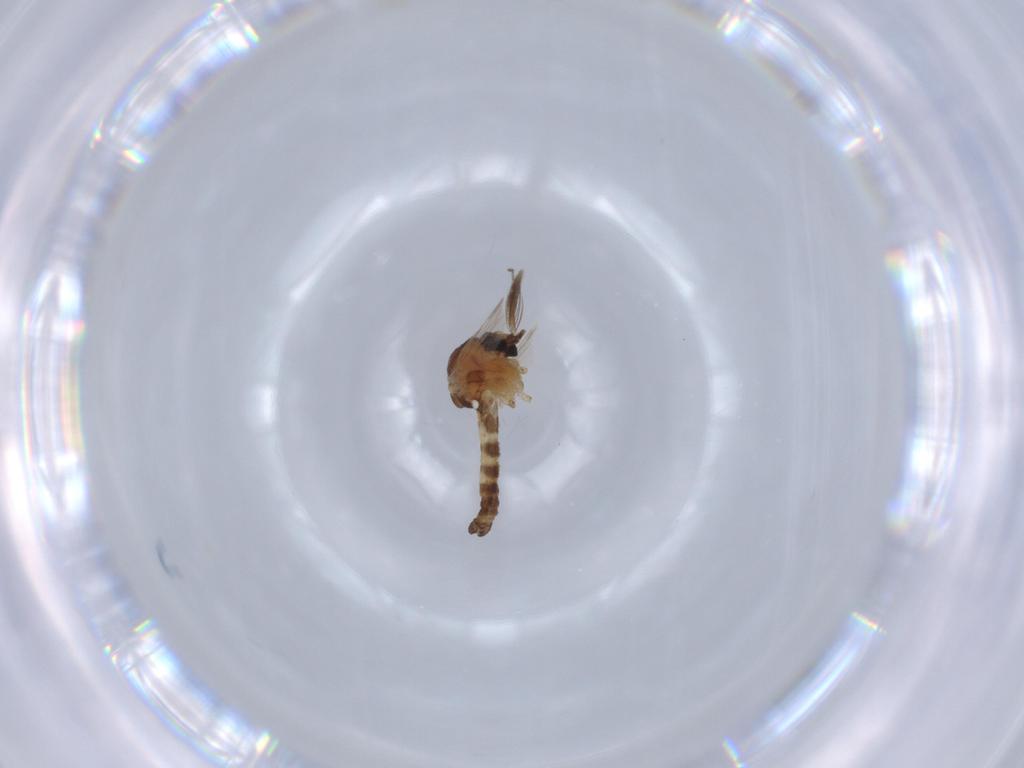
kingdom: Animalia
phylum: Arthropoda
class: Insecta
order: Diptera
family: Ceratopogonidae
